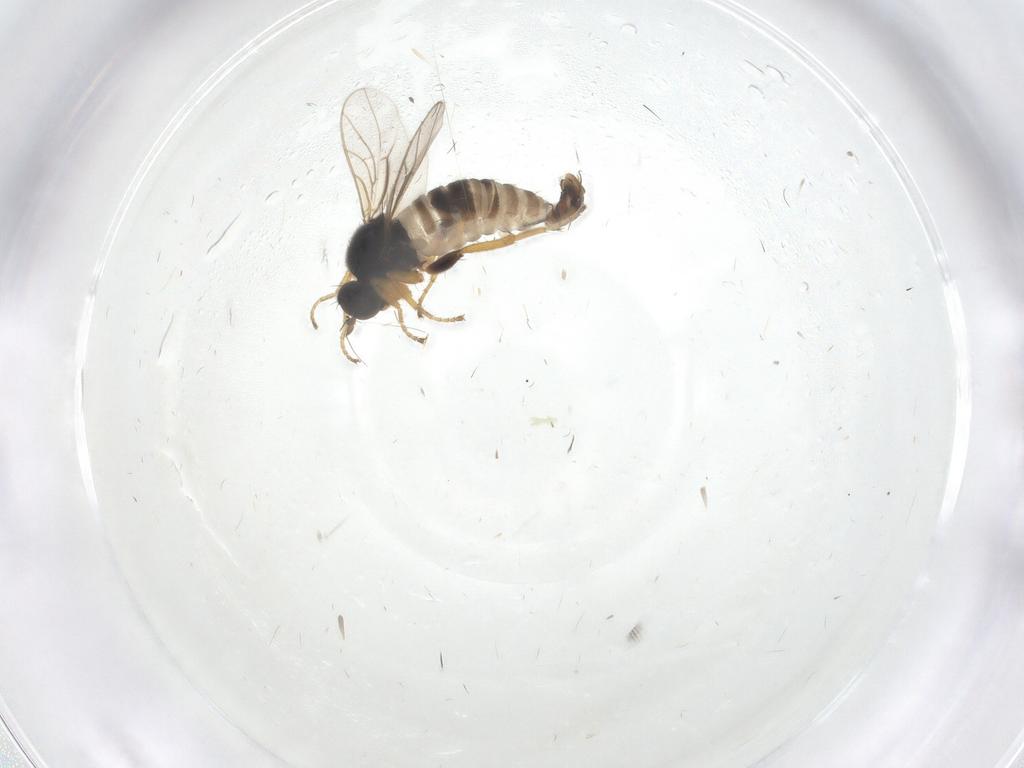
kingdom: Animalia
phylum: Arthropoda
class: Insecta
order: Diptera
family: Hybotidae
